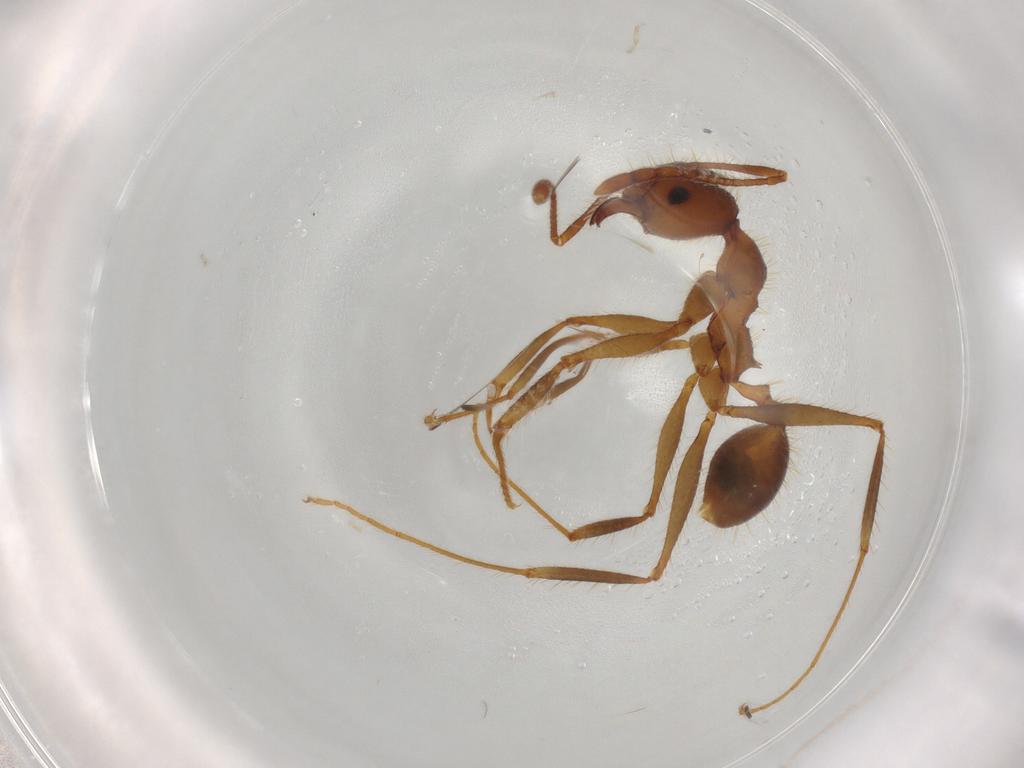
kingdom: Animalia
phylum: Arthropoda
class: Insecta
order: Hymenoptera
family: Formicidae
